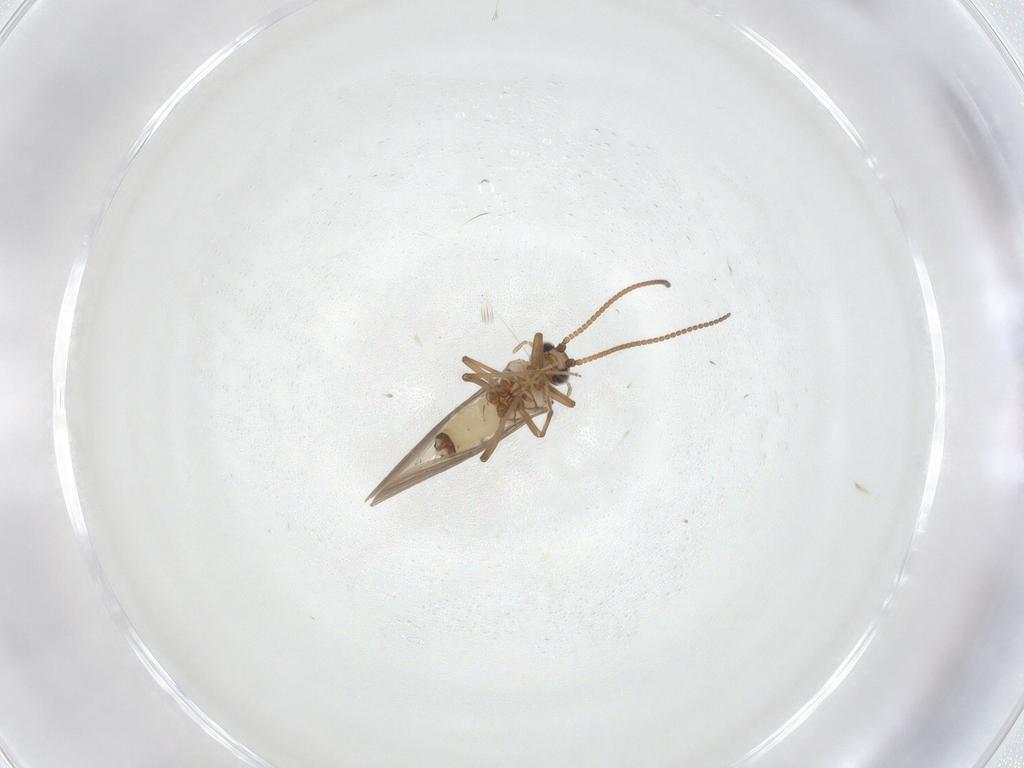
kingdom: Animalia
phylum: Arthropoda
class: Insecta
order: Neuroptera
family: Coniopterygidae
